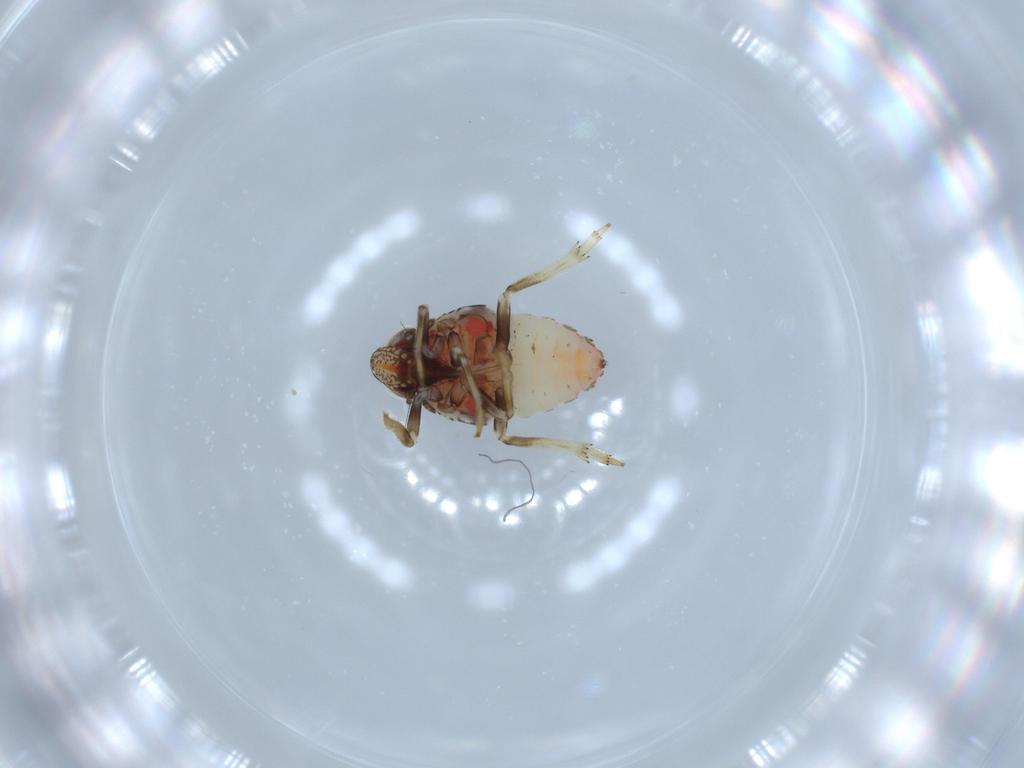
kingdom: Animalia
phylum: Arthropoda
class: Insecta
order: Hemiptera
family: Issidae
